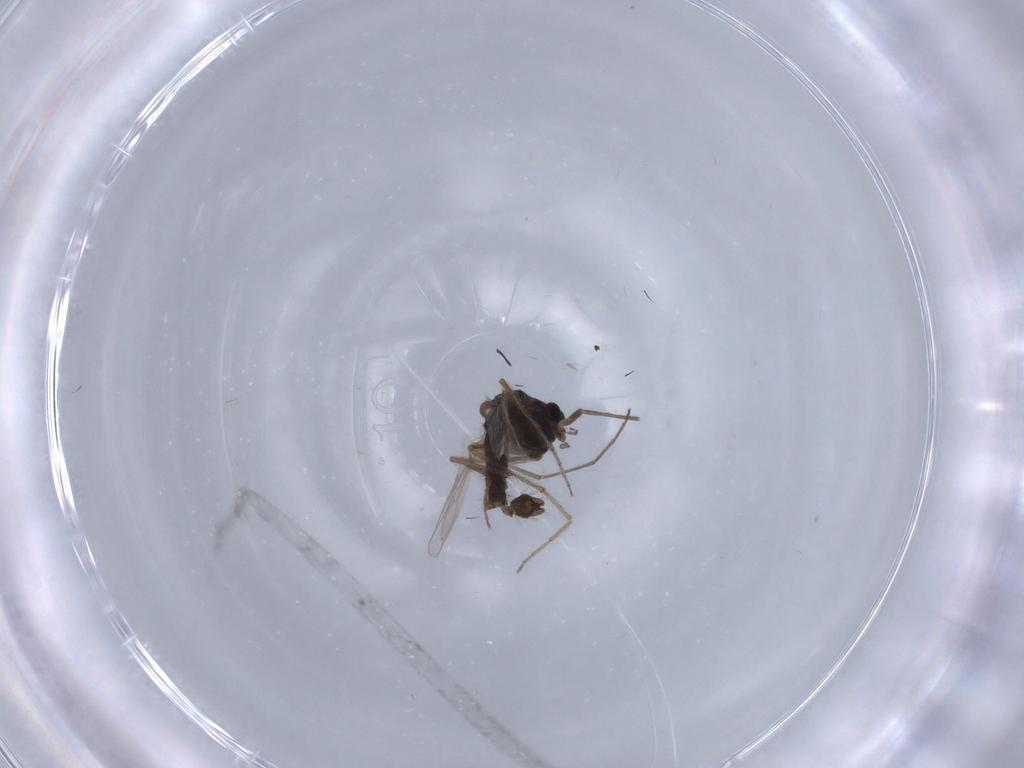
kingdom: Animalia
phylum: Arthropoda
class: Insecta
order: Diptera
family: Chironomidae
